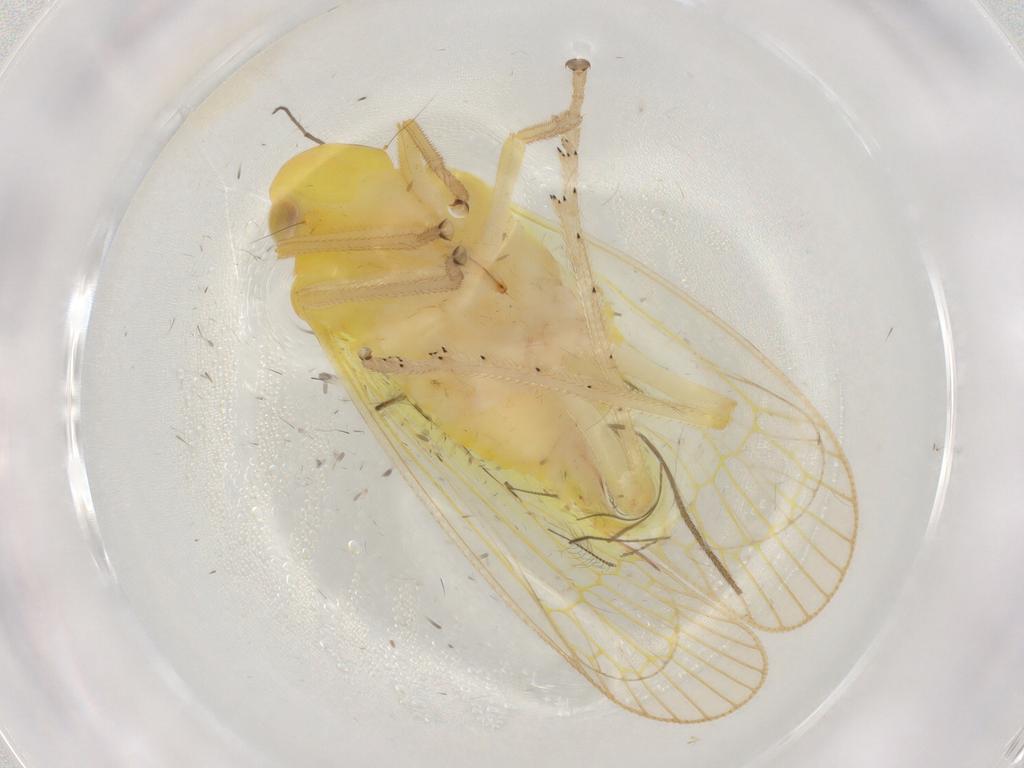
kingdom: Animalia
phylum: Arthropoda
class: Insecta
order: Hemiptera
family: Tropiduchidae
